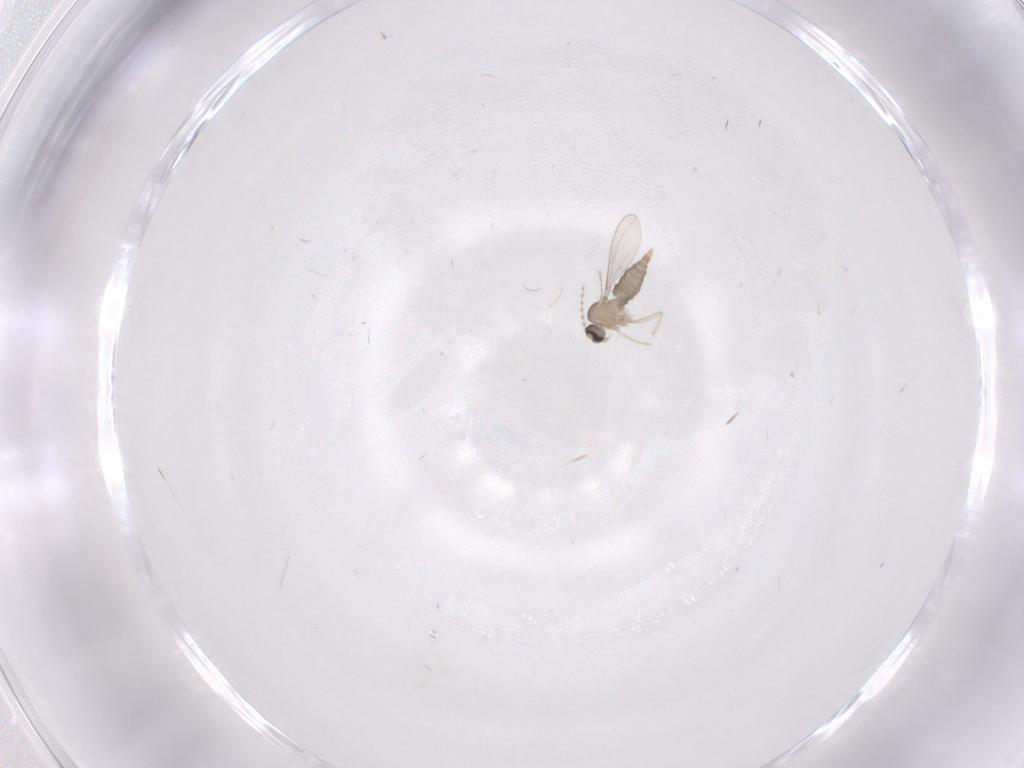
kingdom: Animalia
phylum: Arthropoda
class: Insecta
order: Diptera
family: Cecidomyiidae
